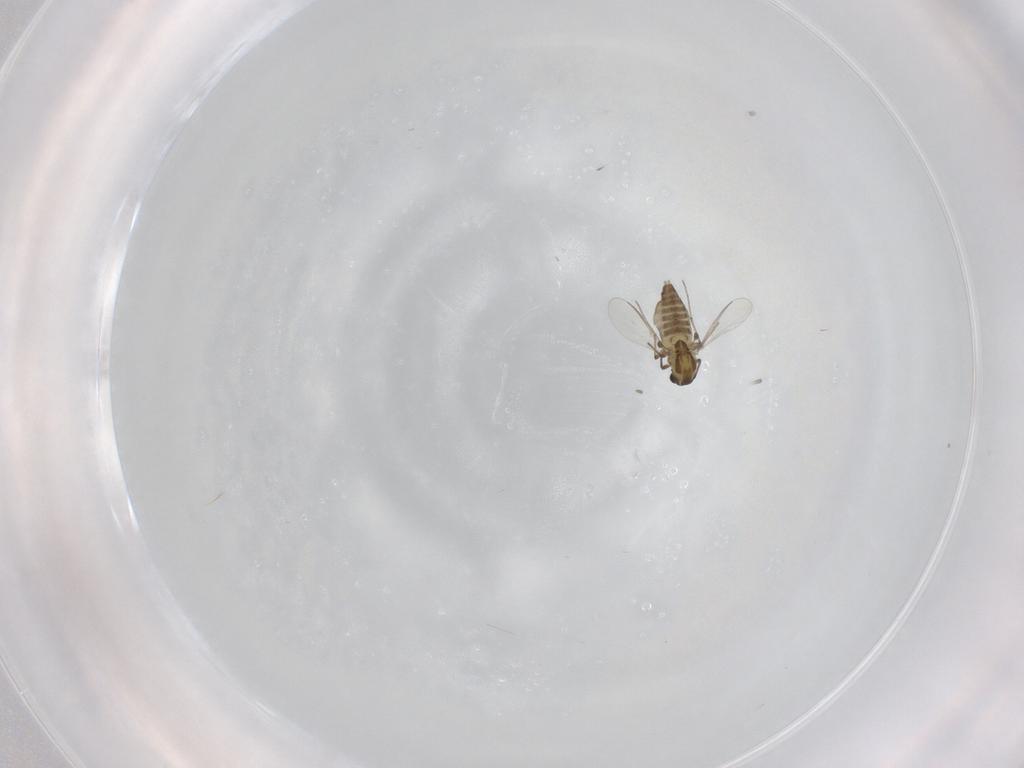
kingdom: Animalia
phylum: Arthropoda
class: Insecta
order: Diptera
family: Chironomidae
